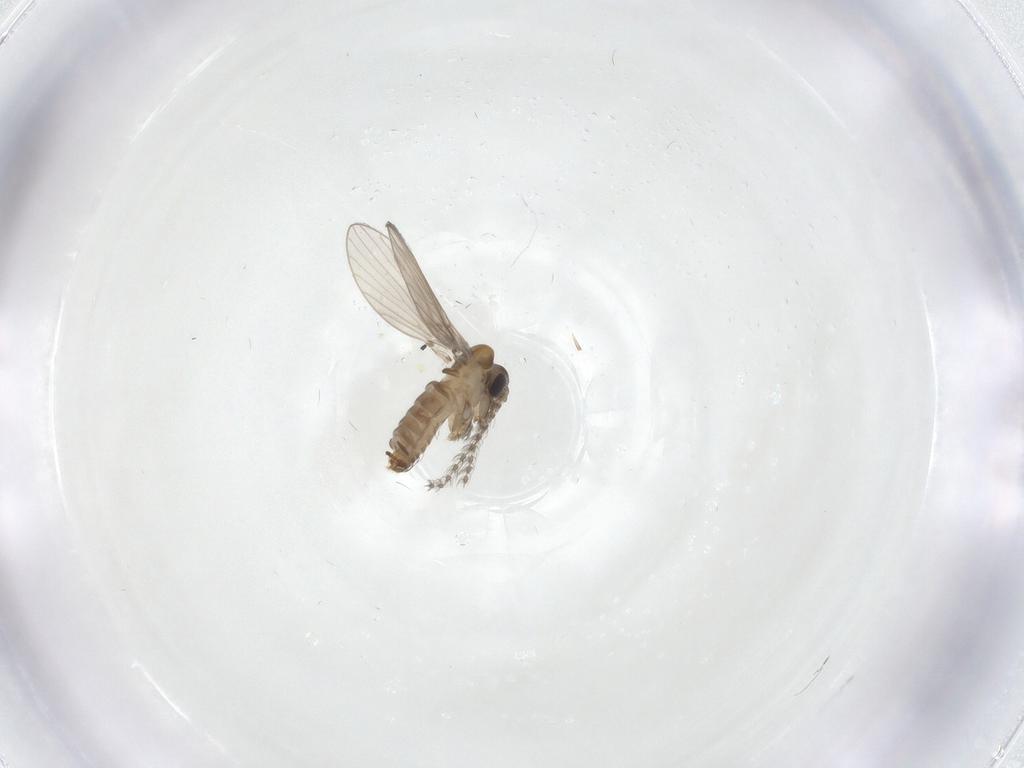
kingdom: Animalia
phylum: Arthropoda
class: Insecta
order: Diptera
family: Psychodidae
